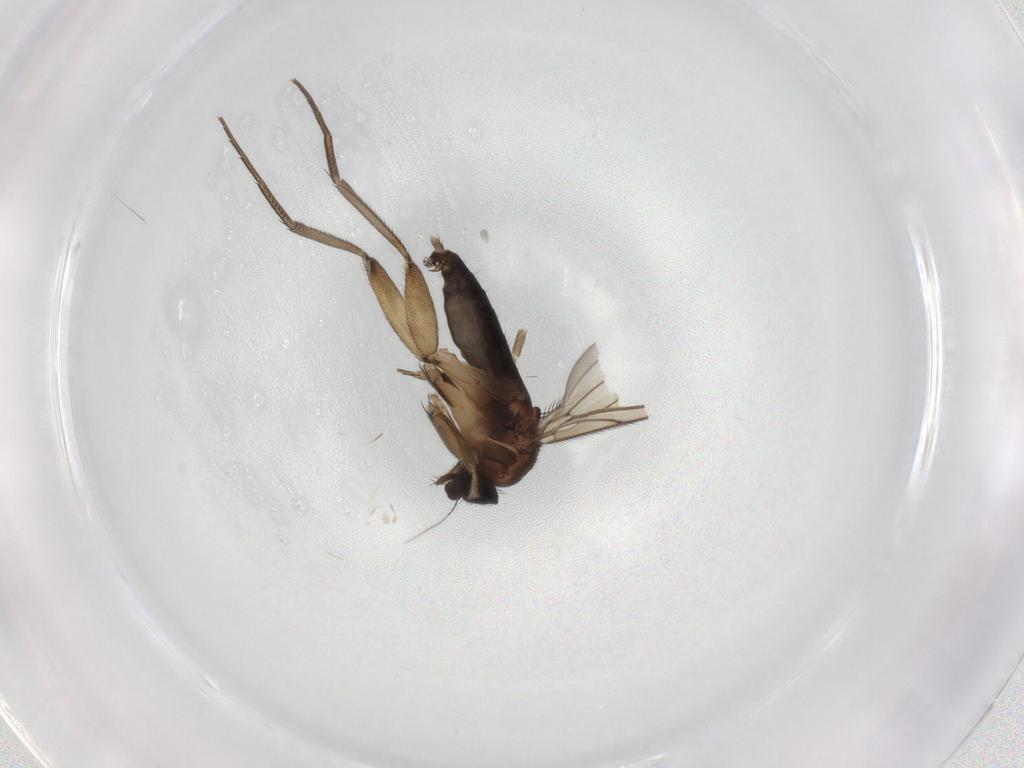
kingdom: Animalia
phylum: Arthropoda
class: Insecta
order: Diptera
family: Phoridae
